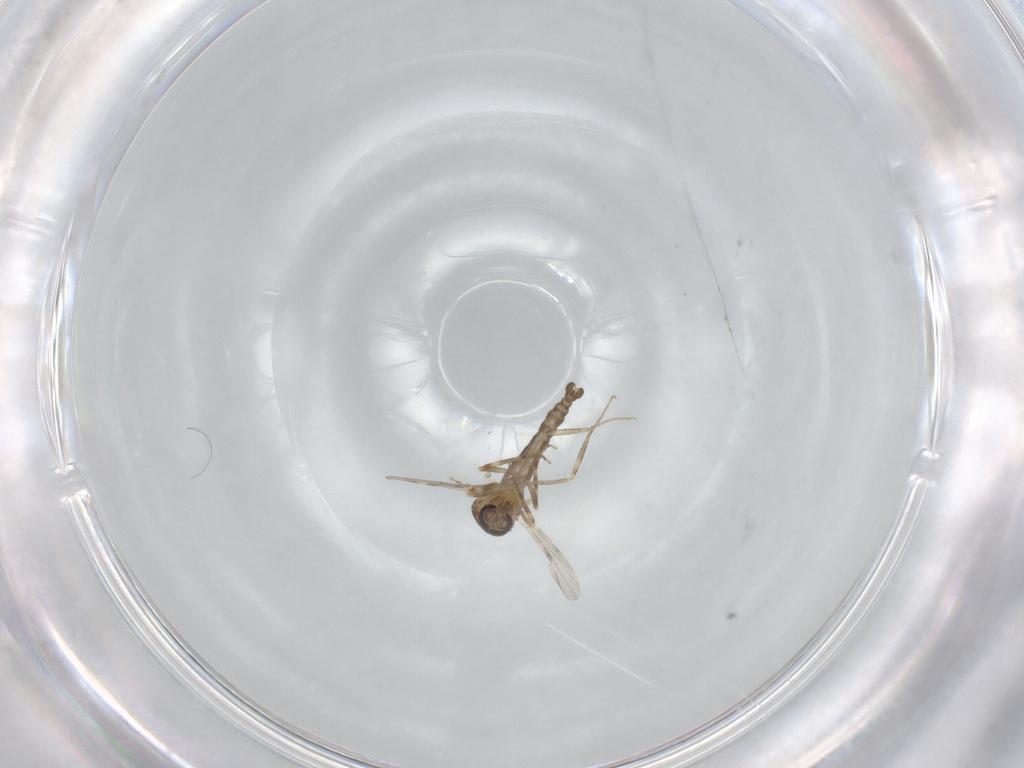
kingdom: Animalia
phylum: Arthropoda
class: Insecta
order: Diptera
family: Ceratopogonidae
